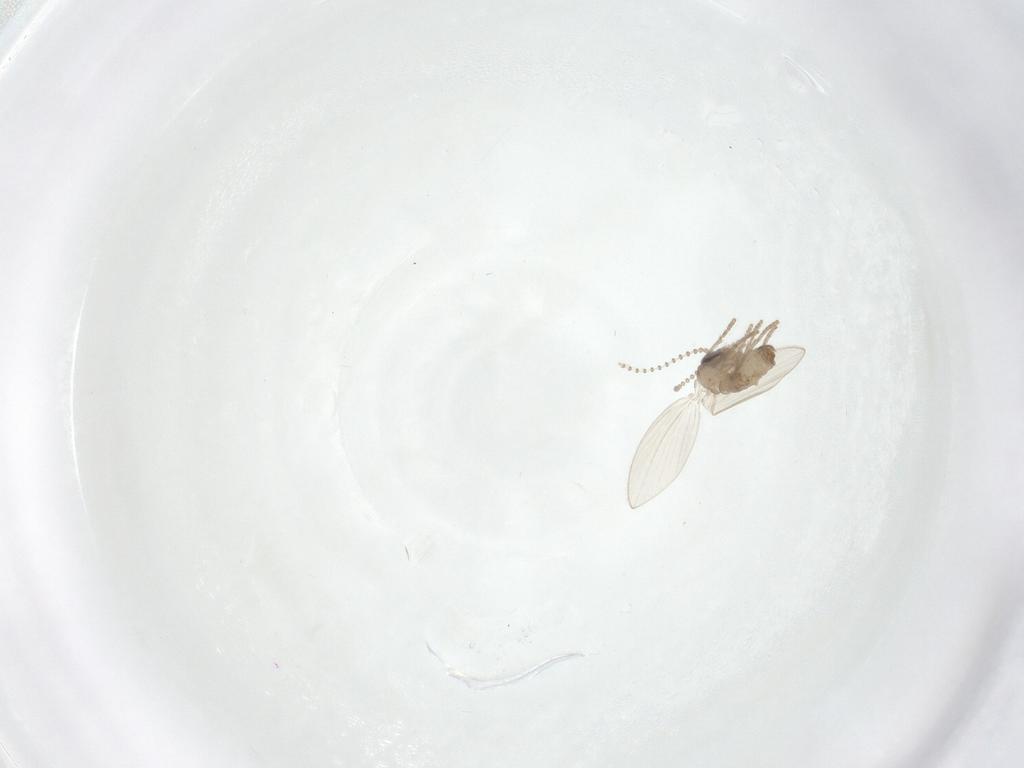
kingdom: Animalia
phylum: Arthropoda
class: Insecta
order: Diptera
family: Psychodidae
